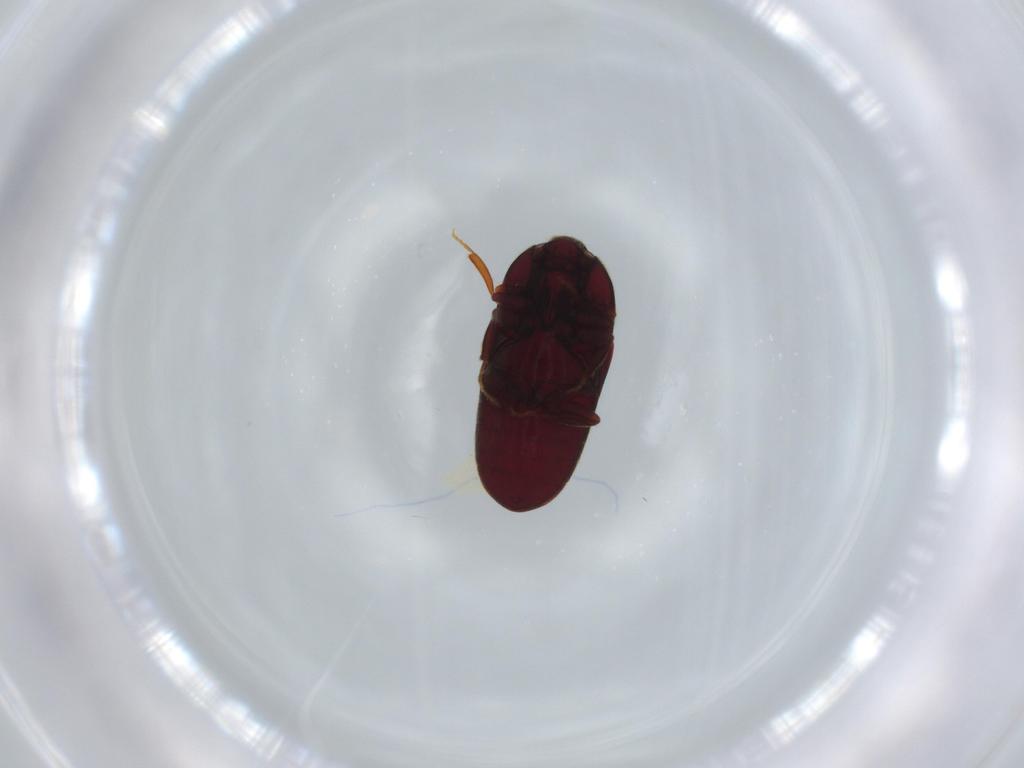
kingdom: Animalia
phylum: Arthropoda
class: Insecta
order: Coleoptera
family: Throscidae
